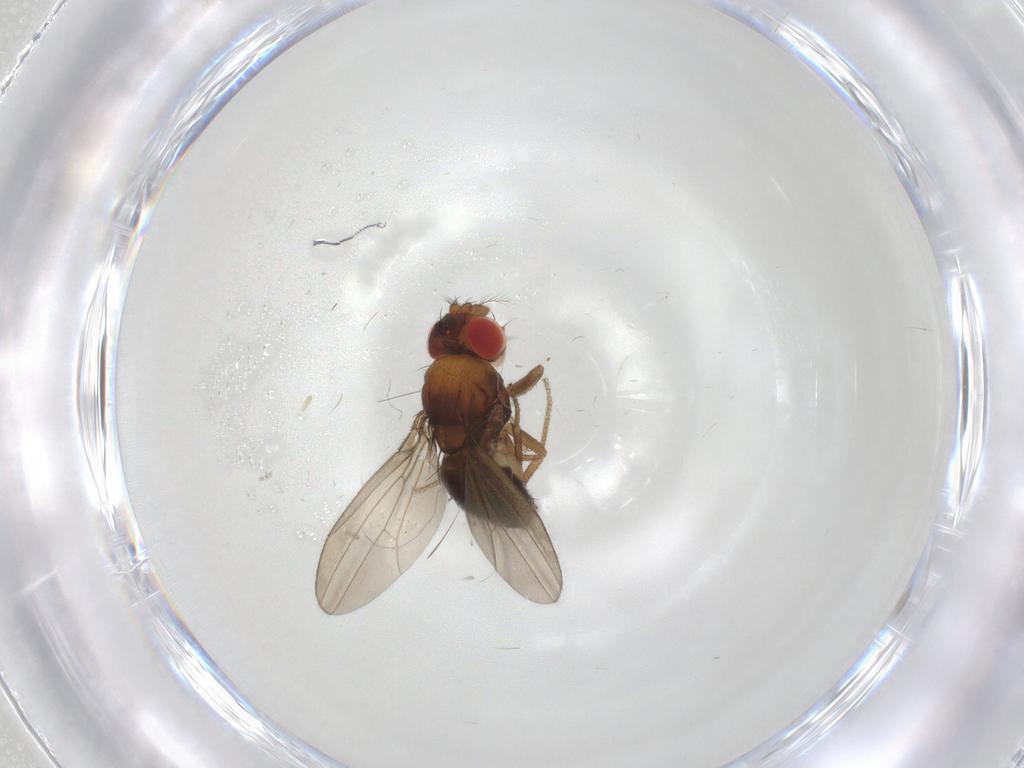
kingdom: Animalia
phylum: Arthropoda
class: Insecta
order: Diptera
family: Drosophilidae
